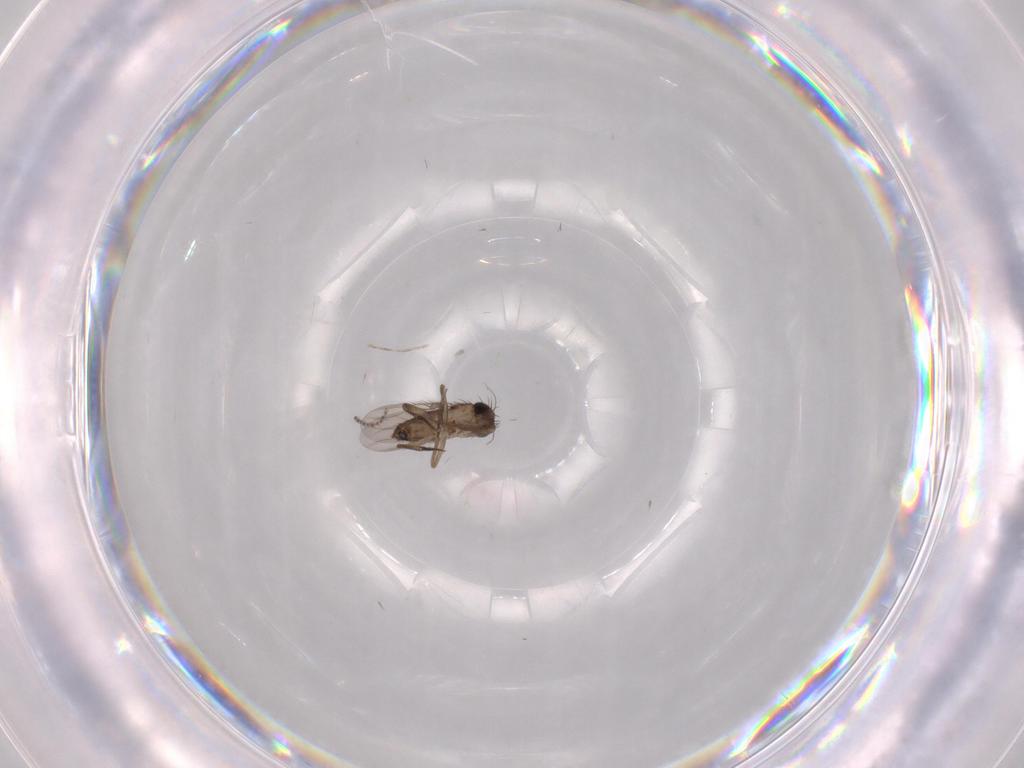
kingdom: Animalia
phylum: Arthropoda
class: Insecta
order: Diptera
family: Phoridae
